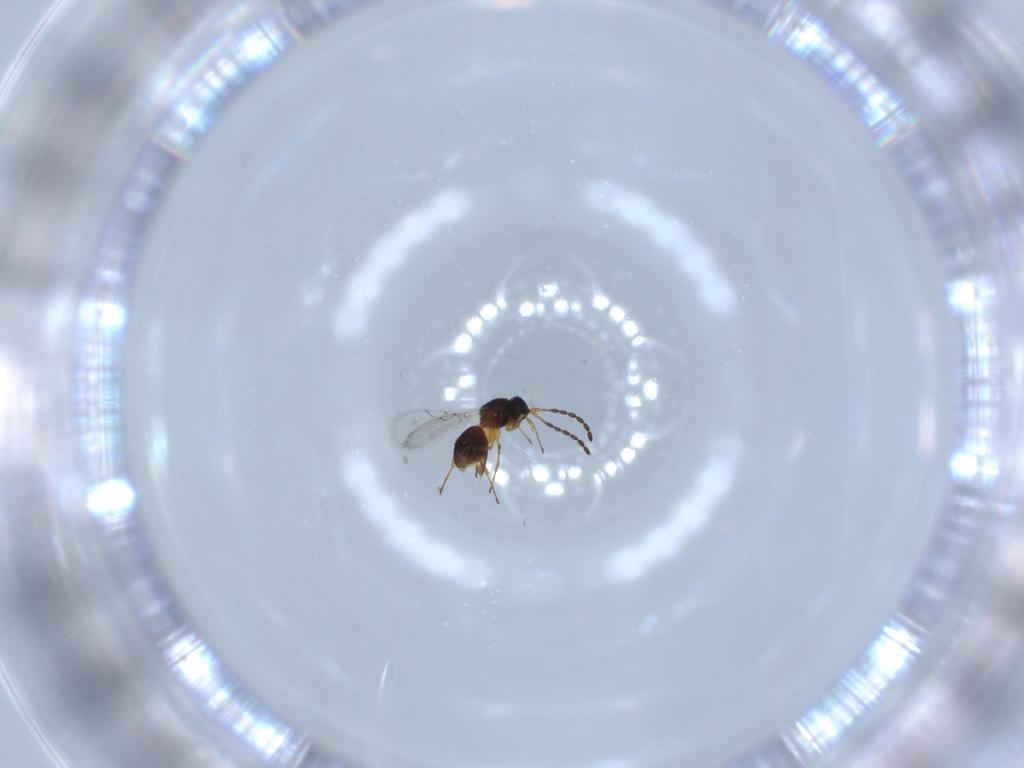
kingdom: Animalia
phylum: Arthropoda
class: Insecta
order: Hymenoptera
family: Figitidae
